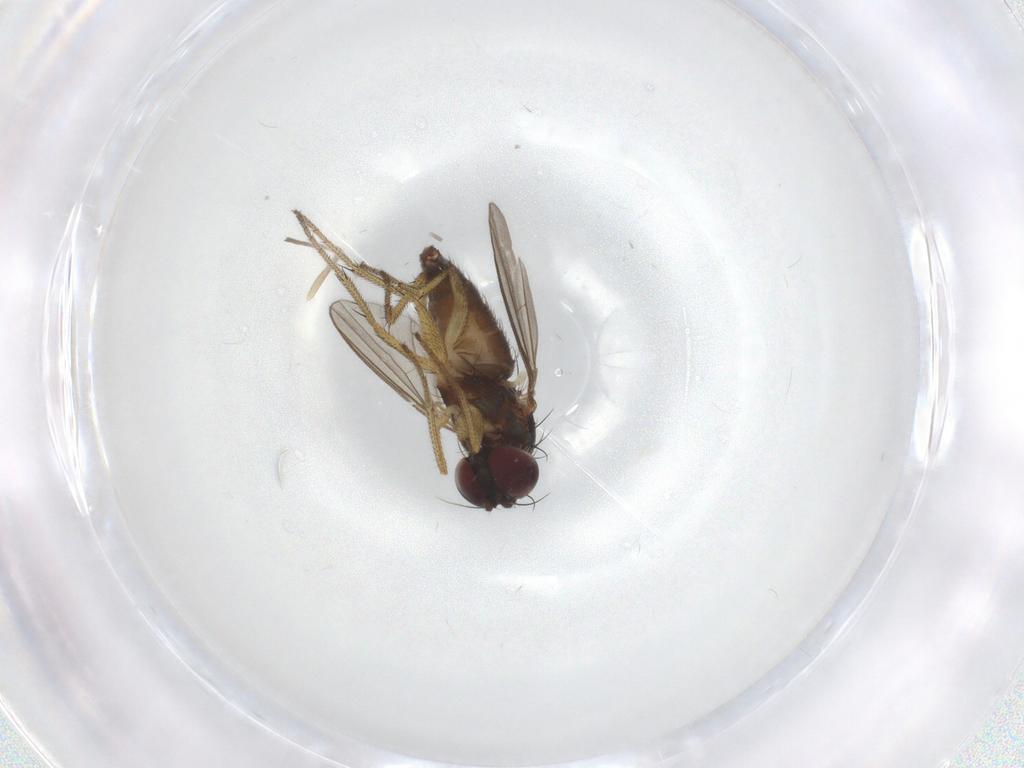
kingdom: Animalia
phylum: Arthropoda
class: Insecta
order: Diptera
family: Dolichopodidae
